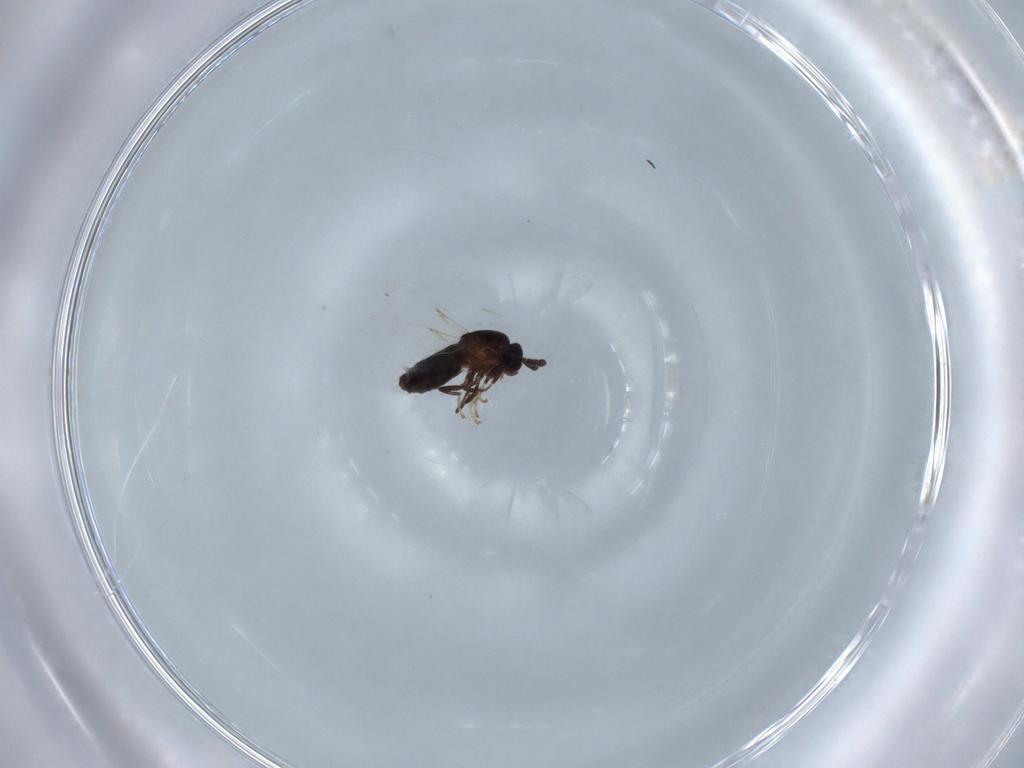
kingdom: Animalia
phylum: Arthropoda
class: Insecta
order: Diptera
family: Scatopsidae
